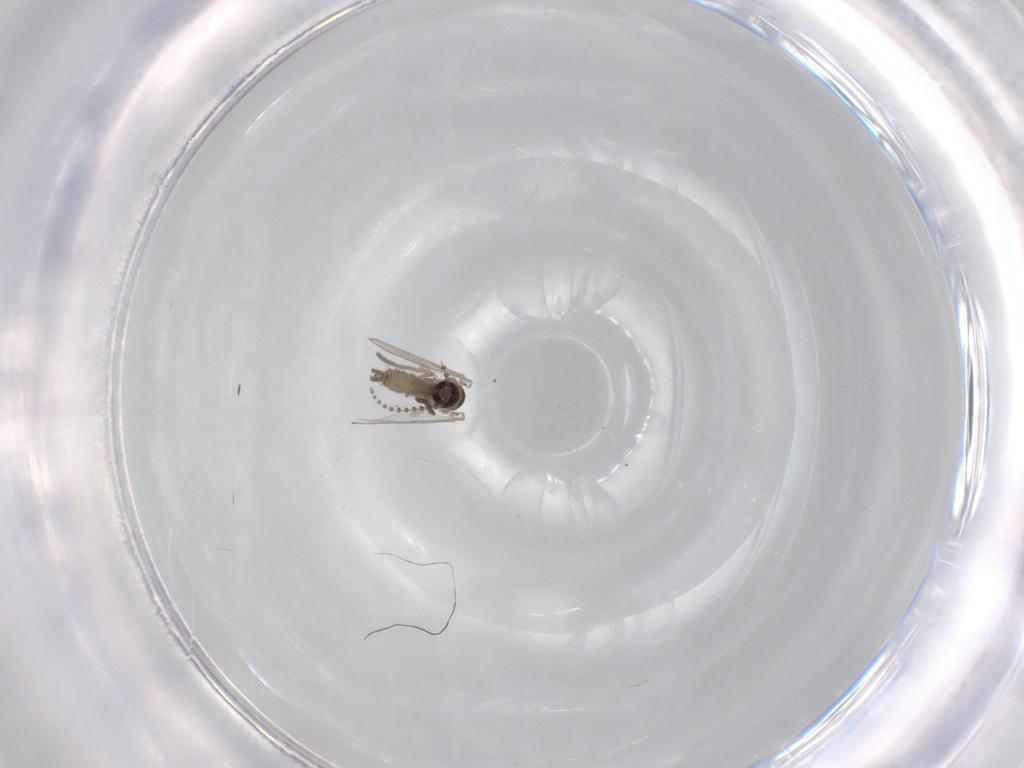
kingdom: Animalia
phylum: Arthropoda
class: Insecta
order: Diptera
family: Psychodidae
